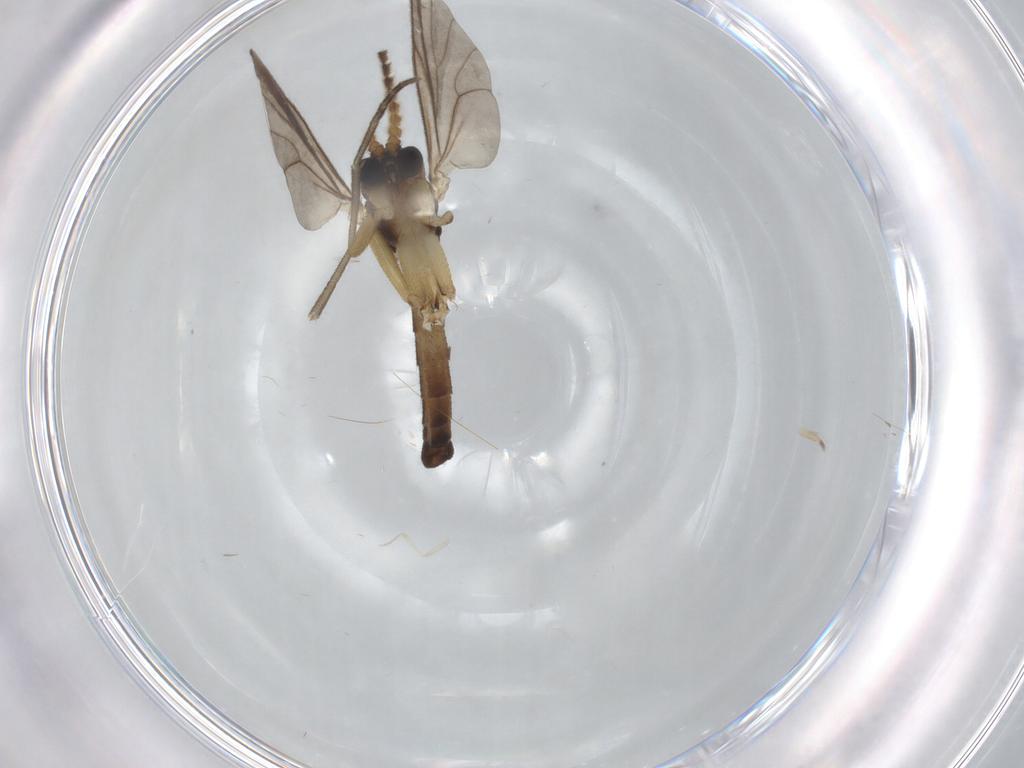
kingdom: Animalia
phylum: Arthropoda
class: Insecta
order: Diptera
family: Mycetophilidae
